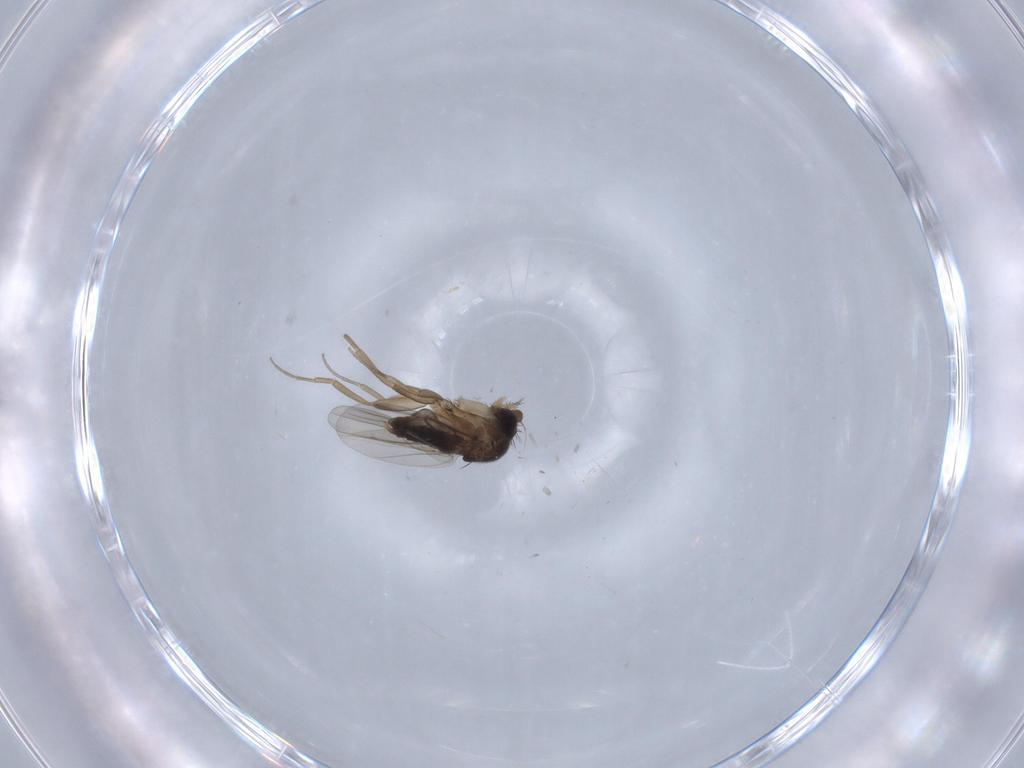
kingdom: Animalia
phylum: Arthropoda
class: Insecta
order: Diptera
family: Phoridae
